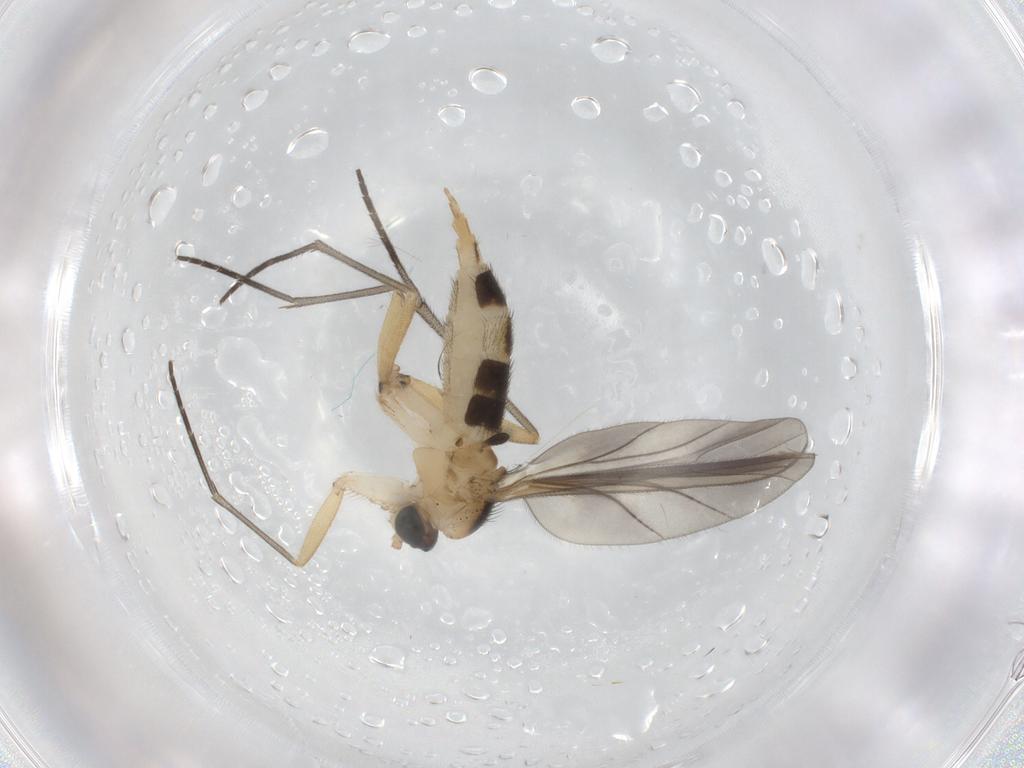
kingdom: Animalia
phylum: Arthropoda
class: Insecta
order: Diptera
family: Sciaridae
